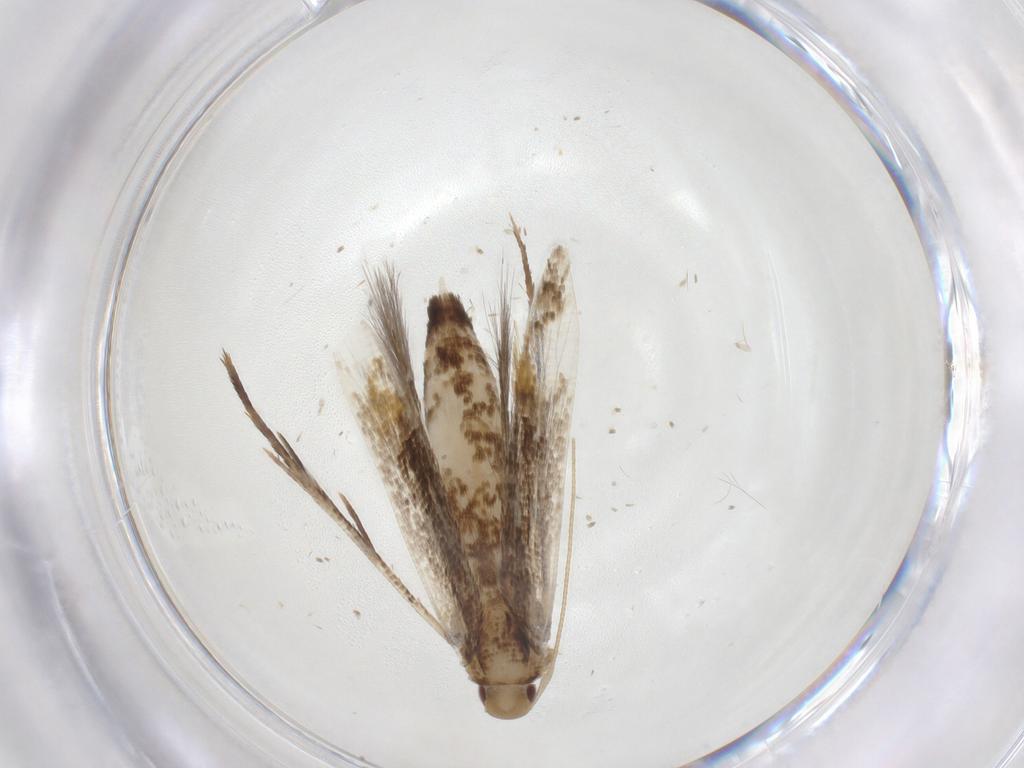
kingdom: Animalia
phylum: Arthropoda
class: Insecta
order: Lepidoptera
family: Cosmopterigidae
